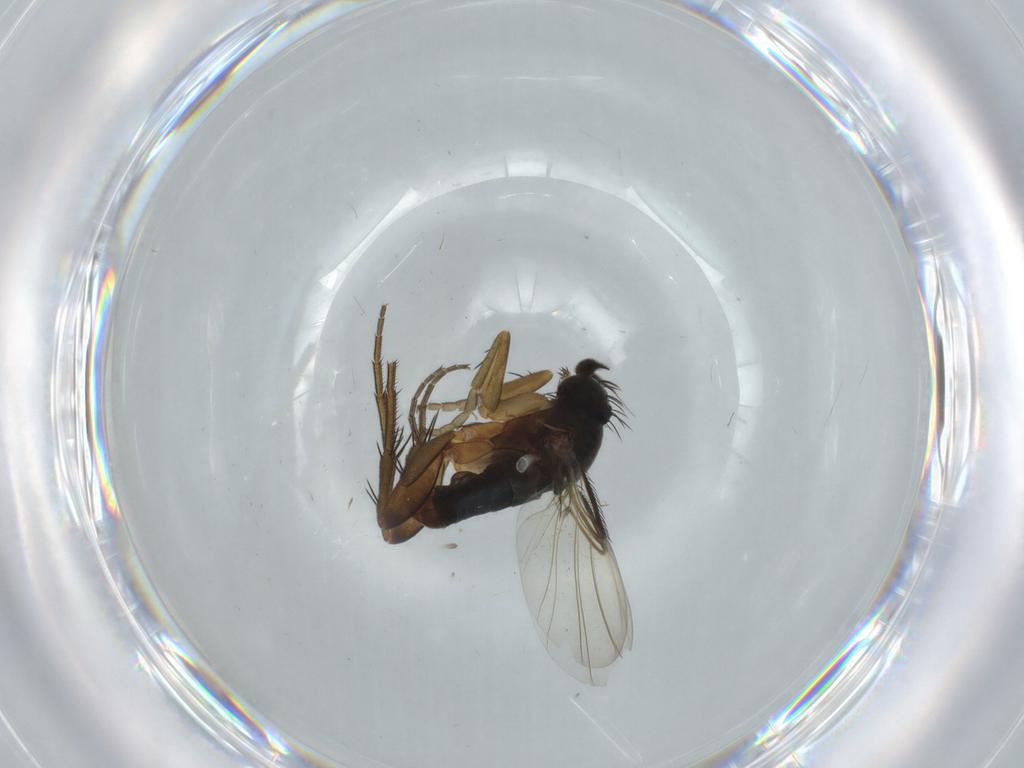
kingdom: Animalia
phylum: Arthropoda
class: Insecta
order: Diptera
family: Phoridae
